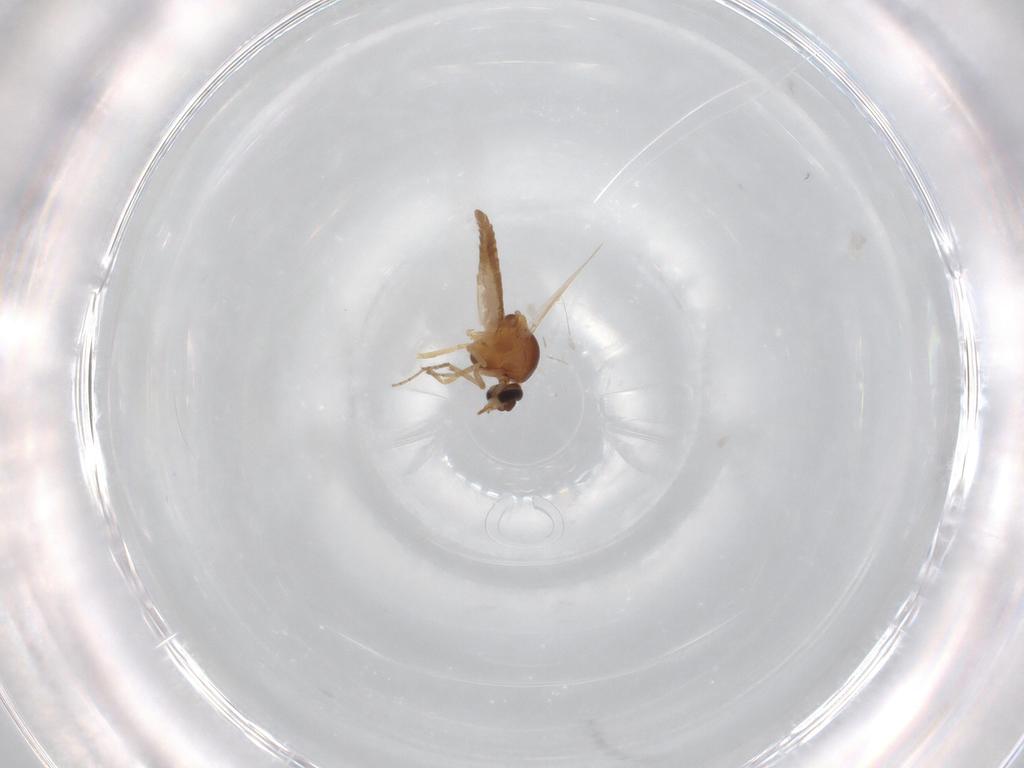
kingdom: Animalia
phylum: Arthropoda
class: Insecta
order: Diptera
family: Ceratopogonidae
